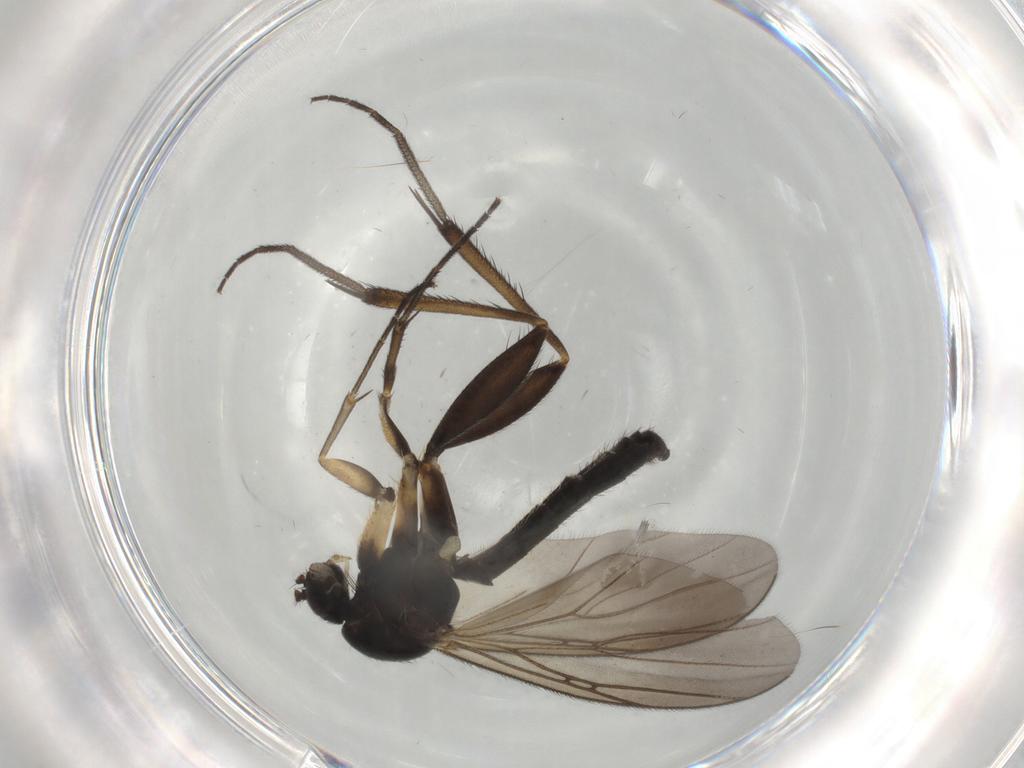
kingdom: Animalia
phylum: Arthropoda
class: Insecta
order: Diptera
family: Mycetophilidae
